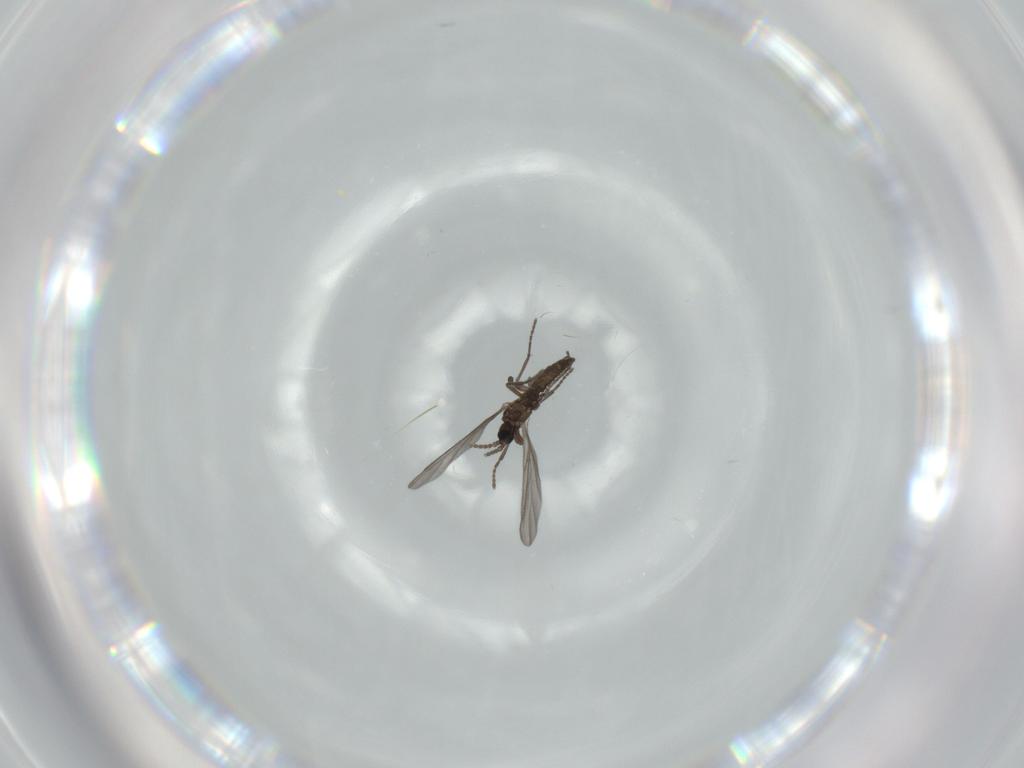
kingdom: Animalia
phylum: Arthropoda
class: Insecta
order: Diptera
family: Sciaridae
